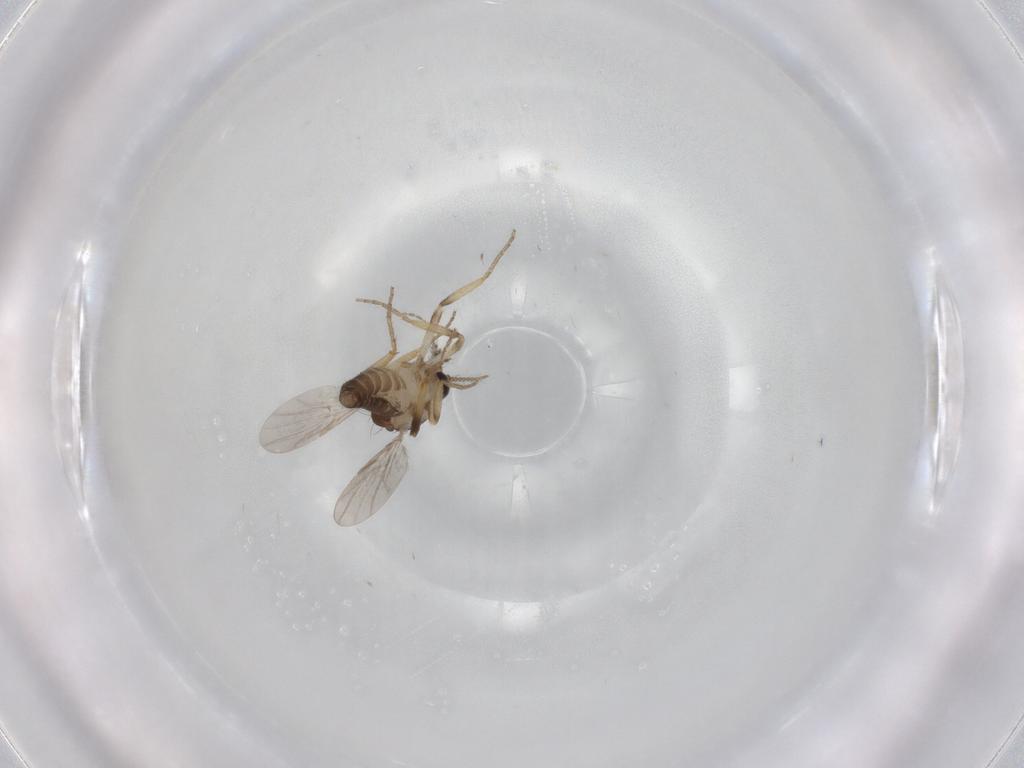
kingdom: Animalia
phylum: Arthropoda
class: Insecta
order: Diptera
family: Ceratopogonidae
